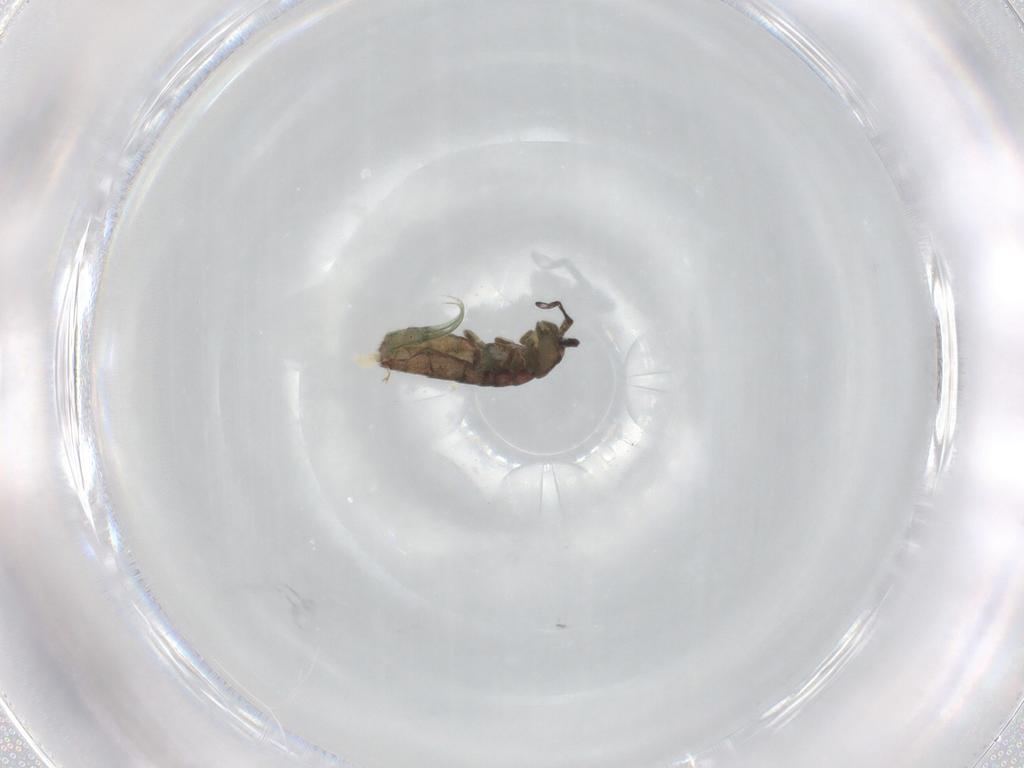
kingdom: Animalia
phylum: Arthropoda
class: Collembola
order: Entomobryomorpha
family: Isotomidae
